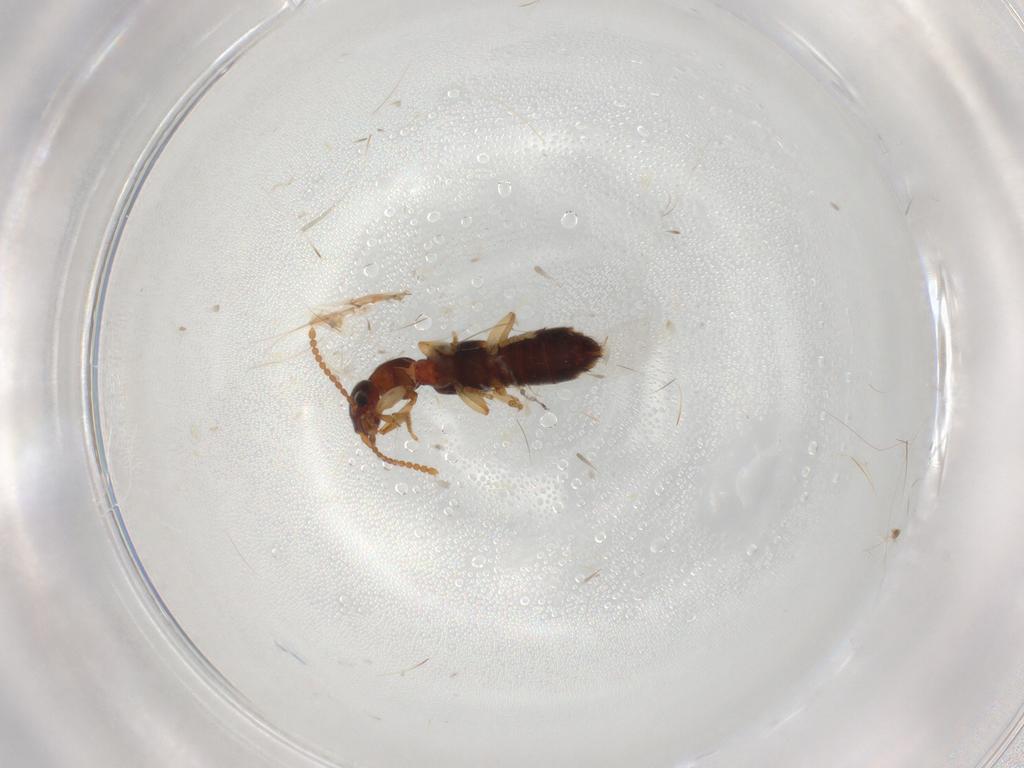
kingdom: Animalia
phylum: Arthropoda
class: Insecta
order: Coleoptera
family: Staphylinidae
